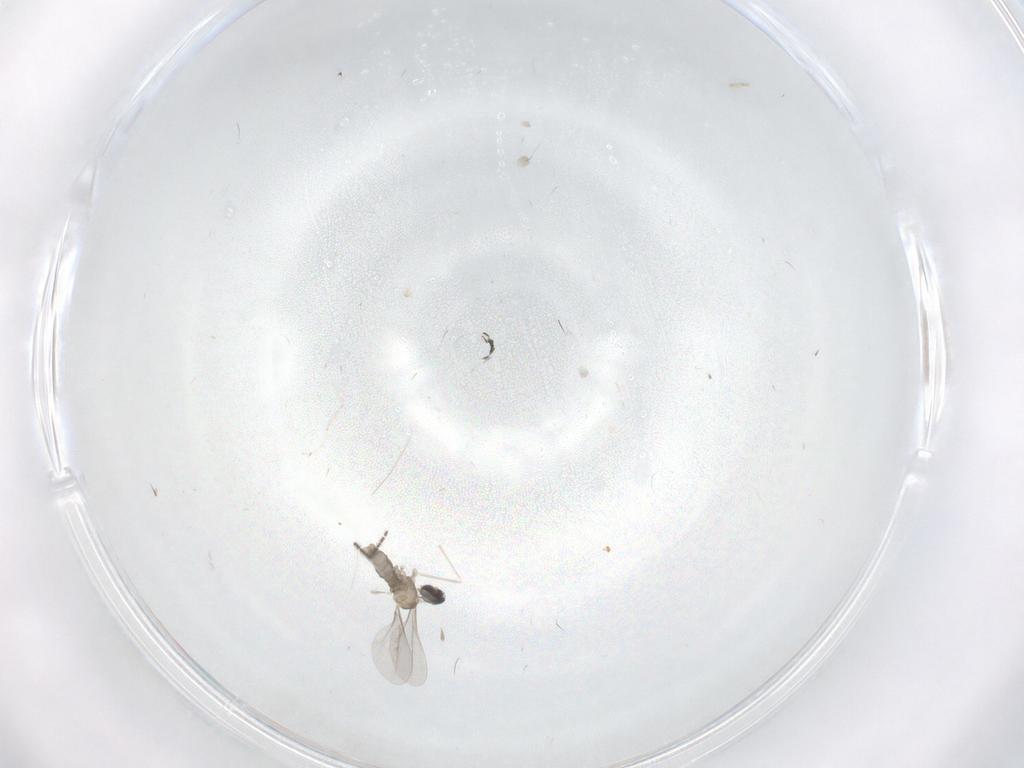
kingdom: Animalia
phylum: Arthropoda
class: Insecta
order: Diptera
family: Cecidomyiidae
